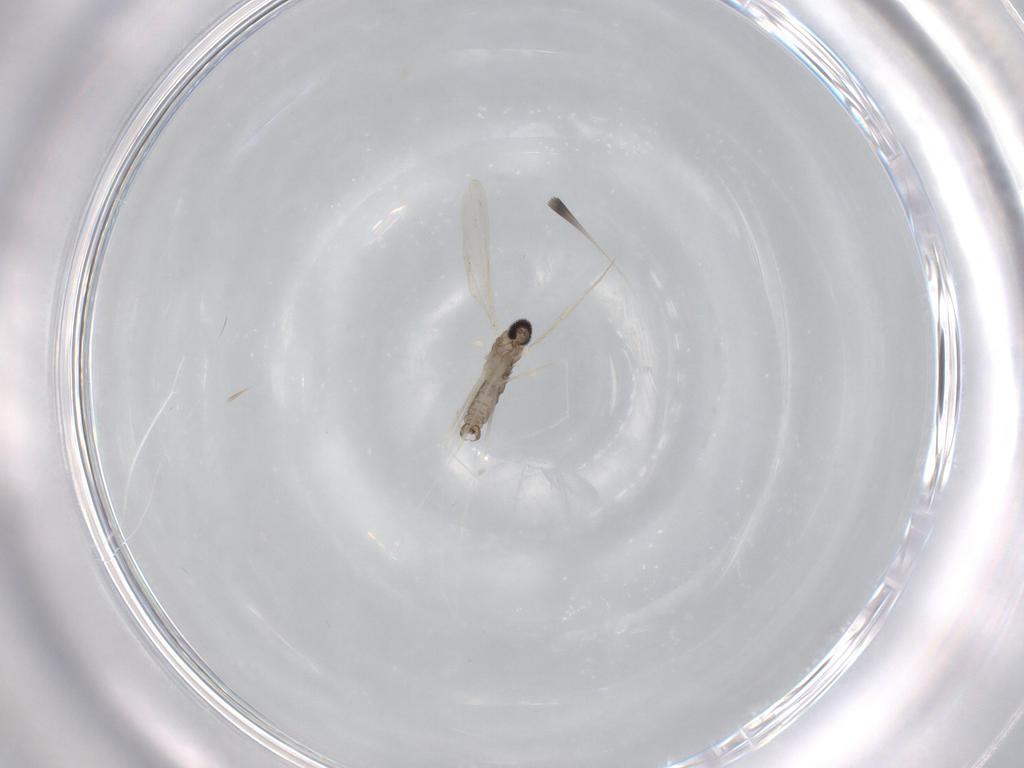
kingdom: Animalia
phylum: Arthropoda
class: Insecta
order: Diptera
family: Cecidomyiidae
